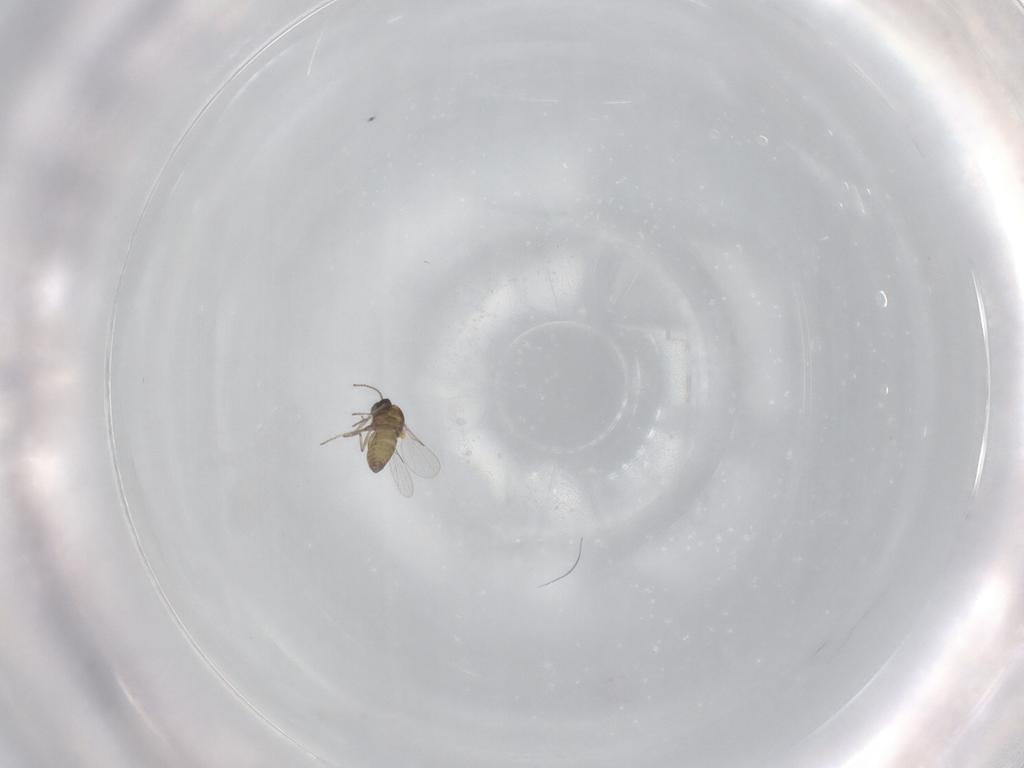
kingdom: Animalia
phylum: Arthropoda
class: Insecta
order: Diptera
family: Ceratopogonidae
